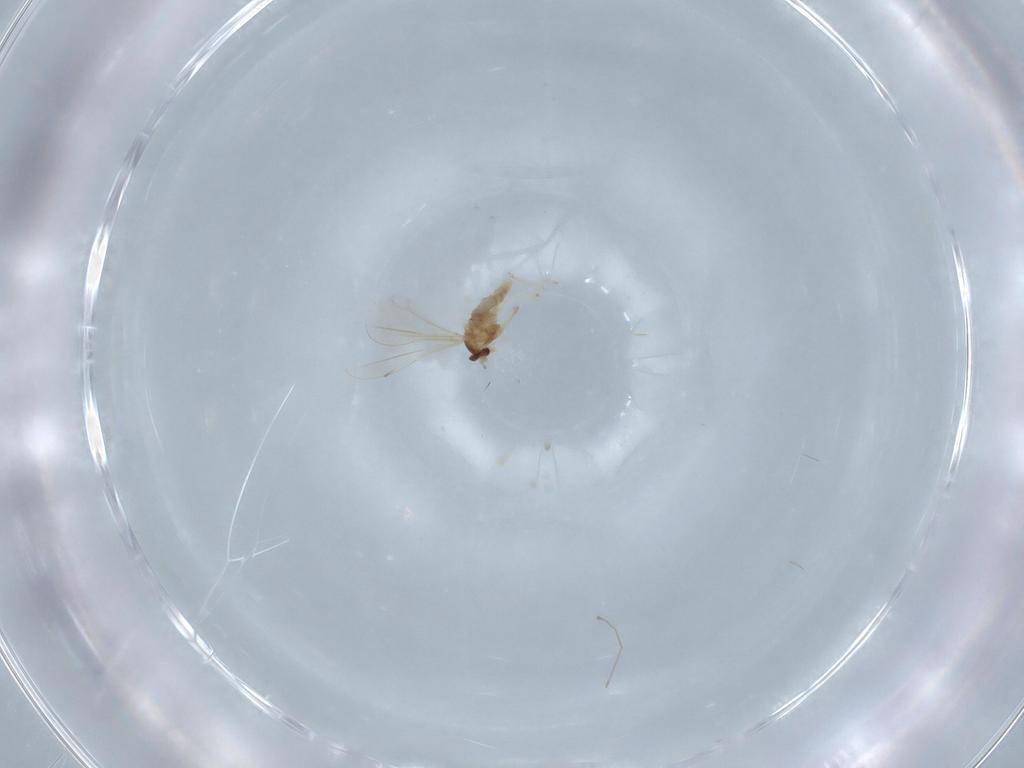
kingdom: Animalia
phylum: Arthropoda
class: Insecta
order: Diptera
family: Cecidomyiidae
